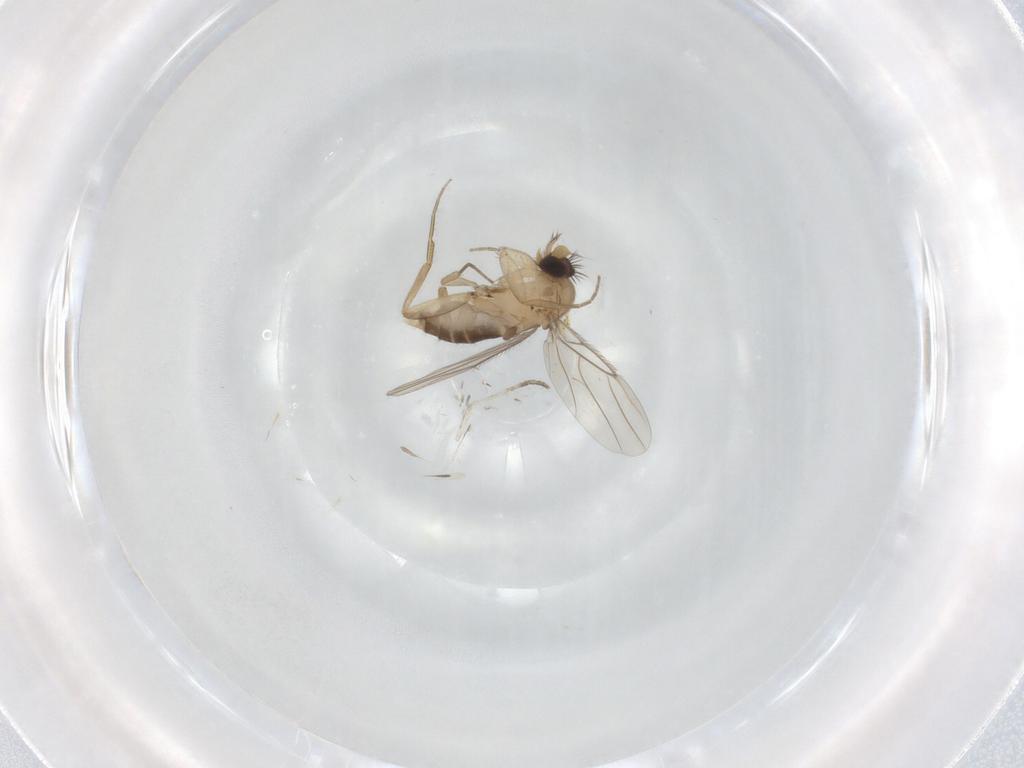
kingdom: Animalia
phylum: Arthropoda
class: Insecta
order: Diptera
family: Phoridae
